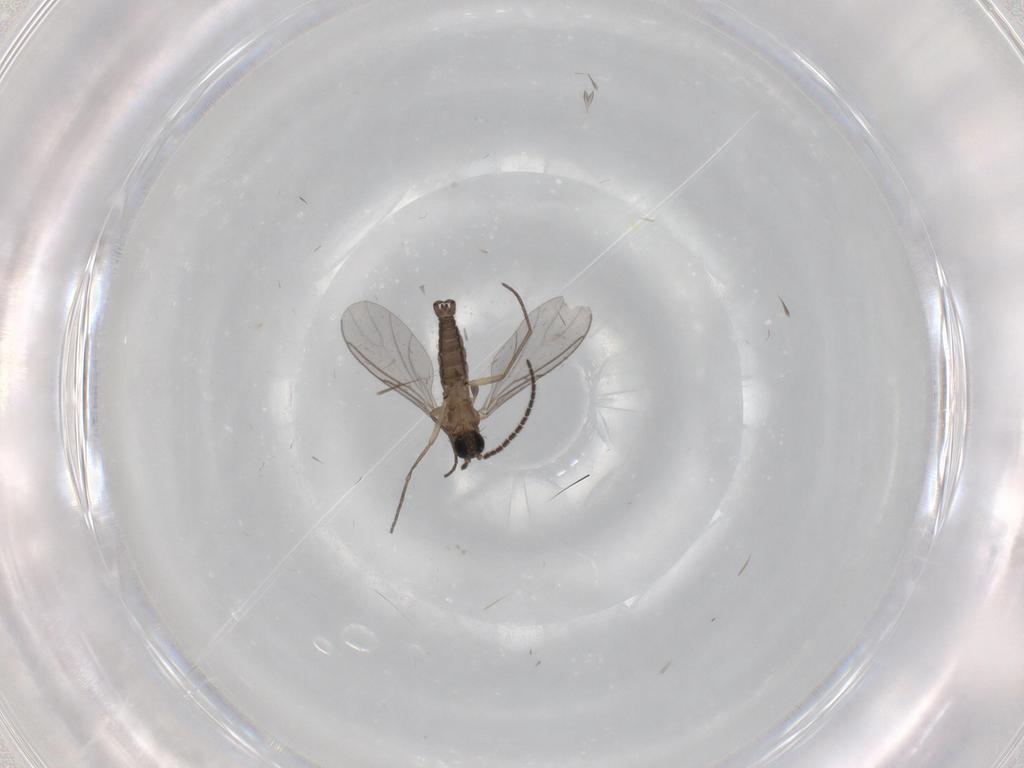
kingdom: Animalia
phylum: Arthropoda
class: Insecta
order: Diptera
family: Sciaridae
